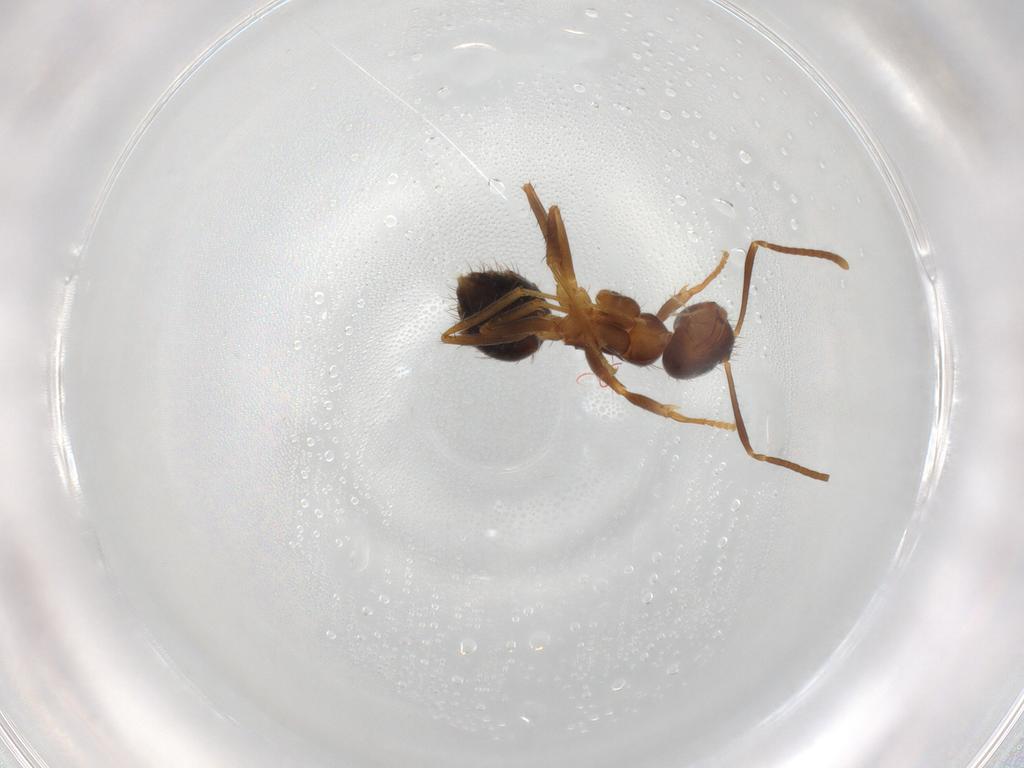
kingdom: Animalia
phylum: Arthropoda
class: Insecta
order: Hymenoptera
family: Formicidae
